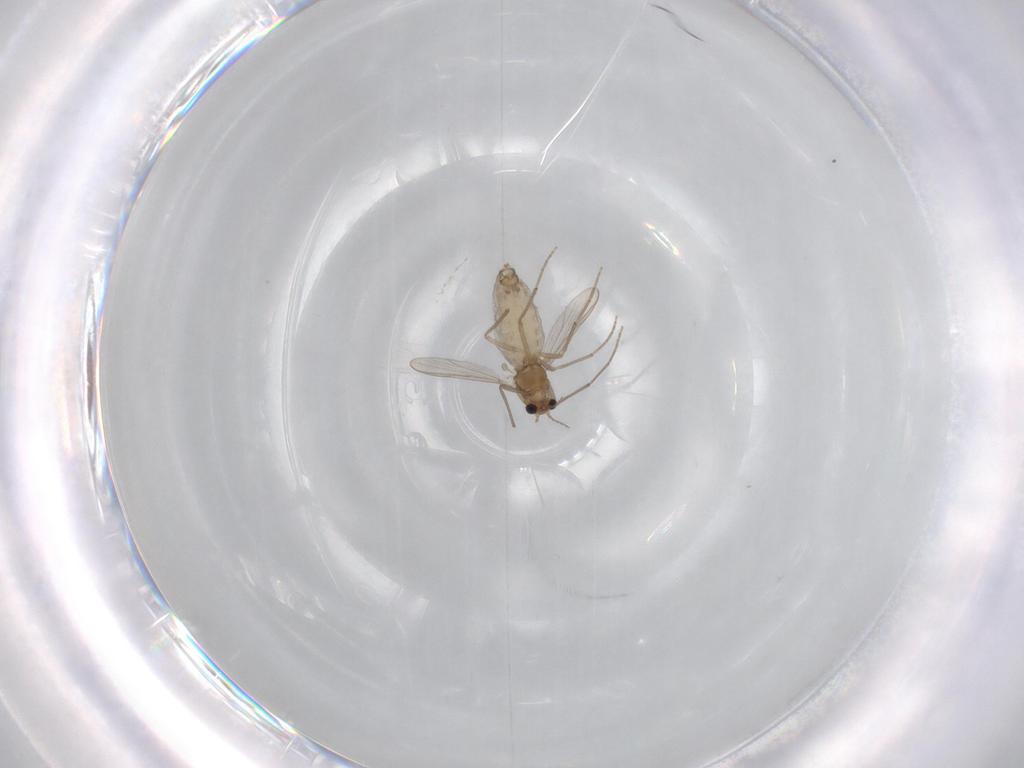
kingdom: Animalia
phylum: Arthropoda
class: Insecta
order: Diptera
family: Chironomidae
